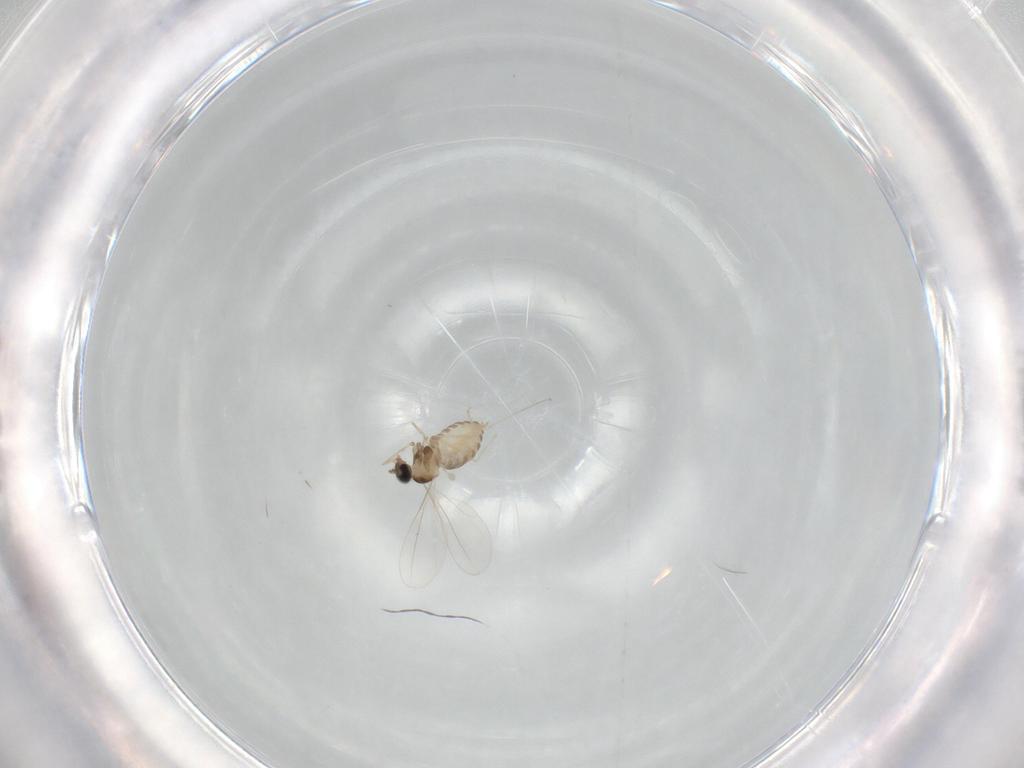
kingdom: Animalia
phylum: Arthropoda
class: Insecta
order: Diptera
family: Cecidomyiidae
